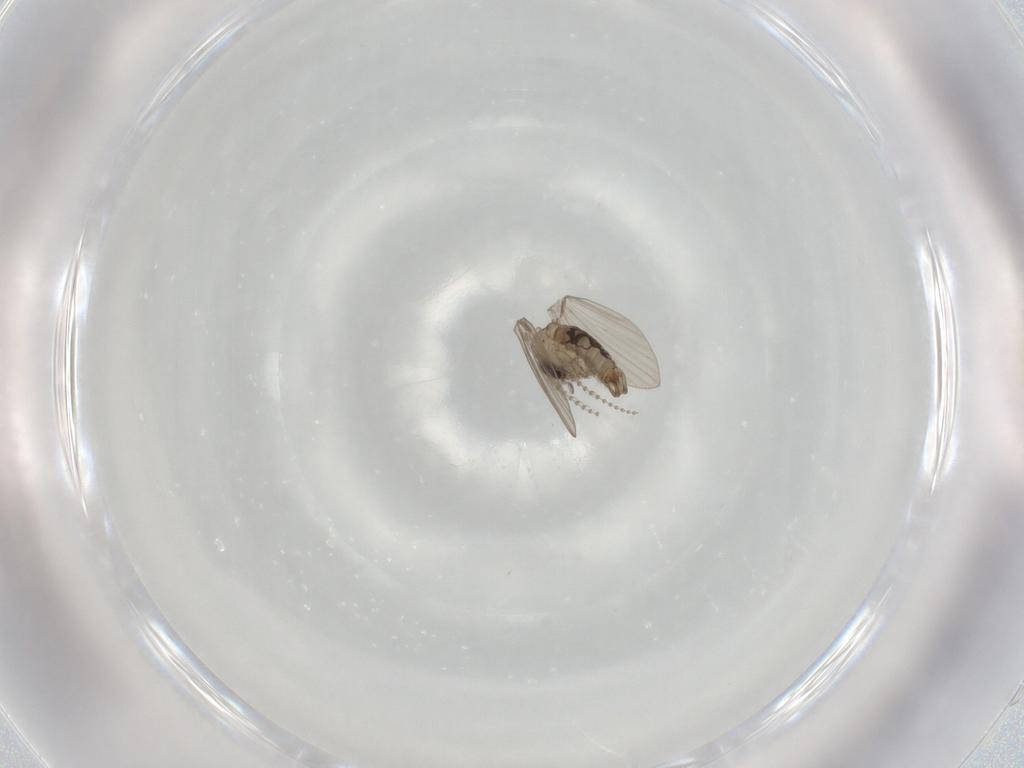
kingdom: Animalia
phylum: Arthropoda
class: Insecta
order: Diptera
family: Psychodidae
